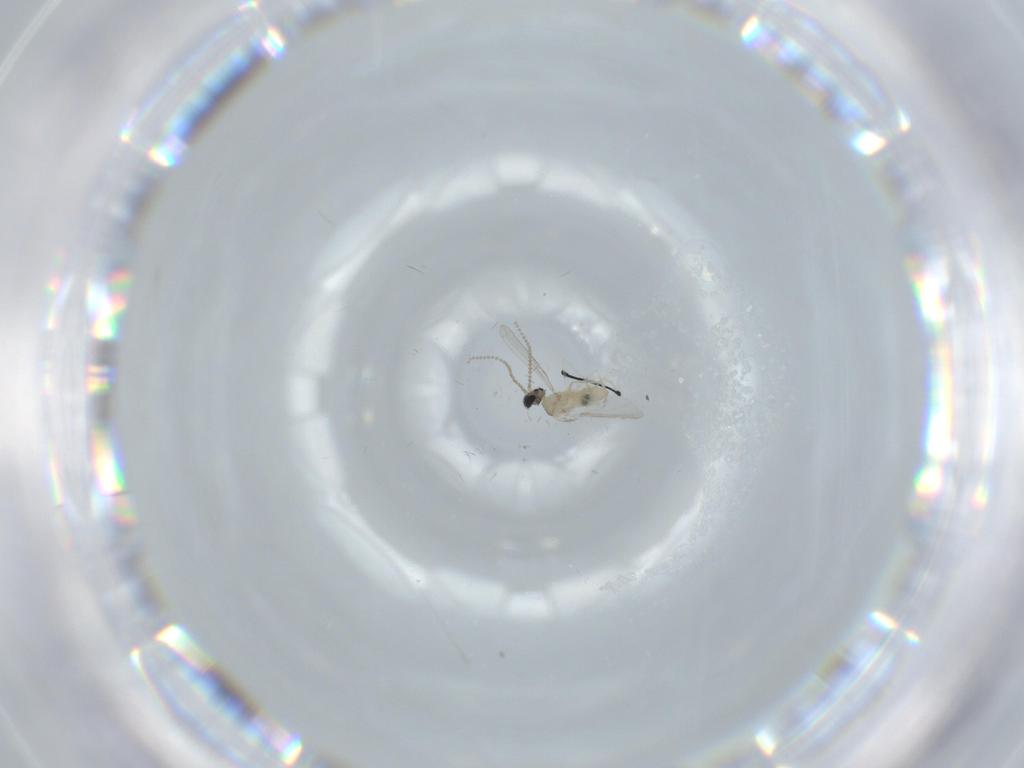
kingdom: Animalia
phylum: Arthropoda
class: Insecta
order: Diptera
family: Cecidomyiidae
